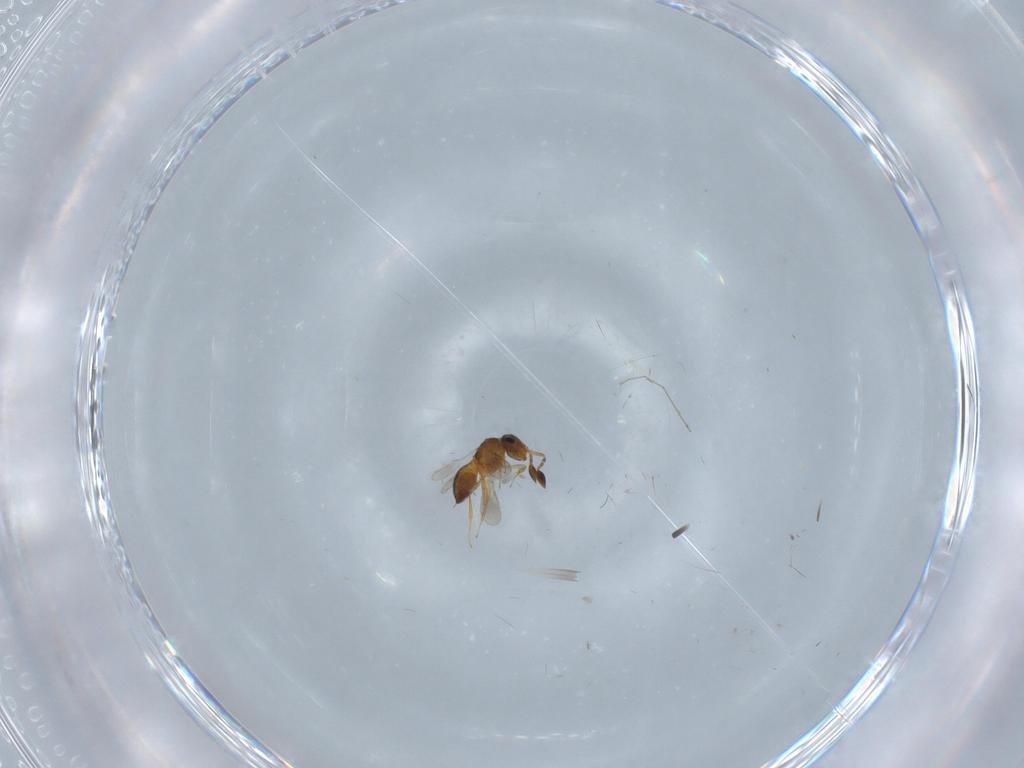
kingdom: Animalia
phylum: Arthropoda
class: Insecta
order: Hymenoptera
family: Scelionidae
